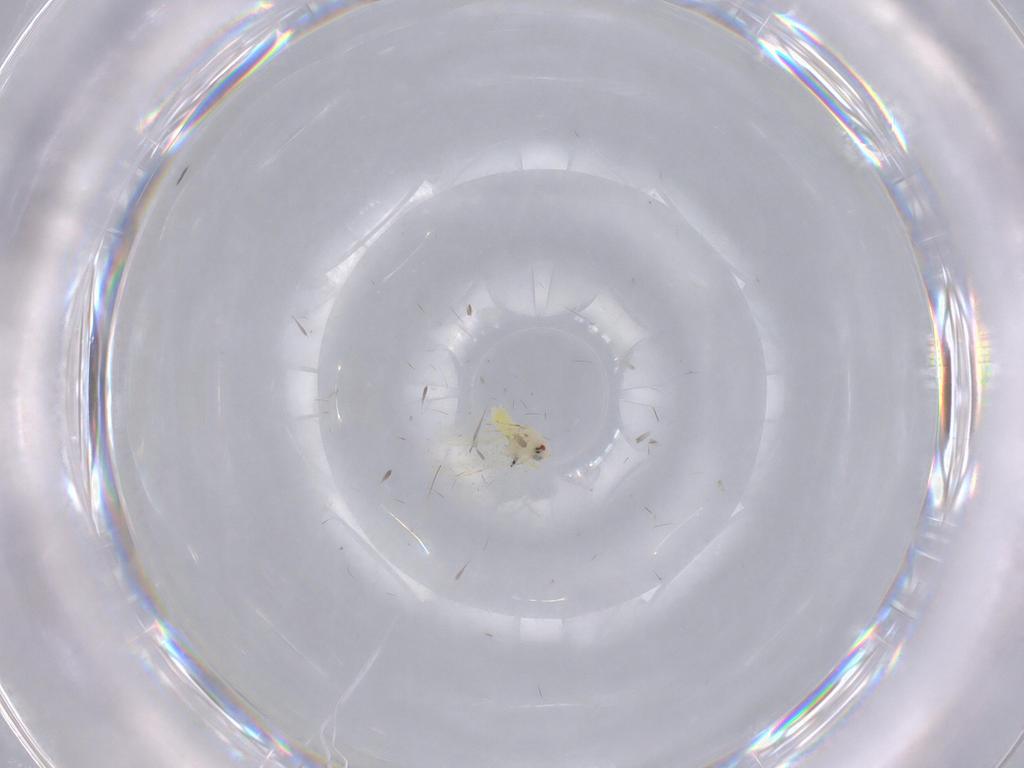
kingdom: Animalia
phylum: Arthropoda
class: Insecta
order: Hemiptera
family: Aleyrodidae
